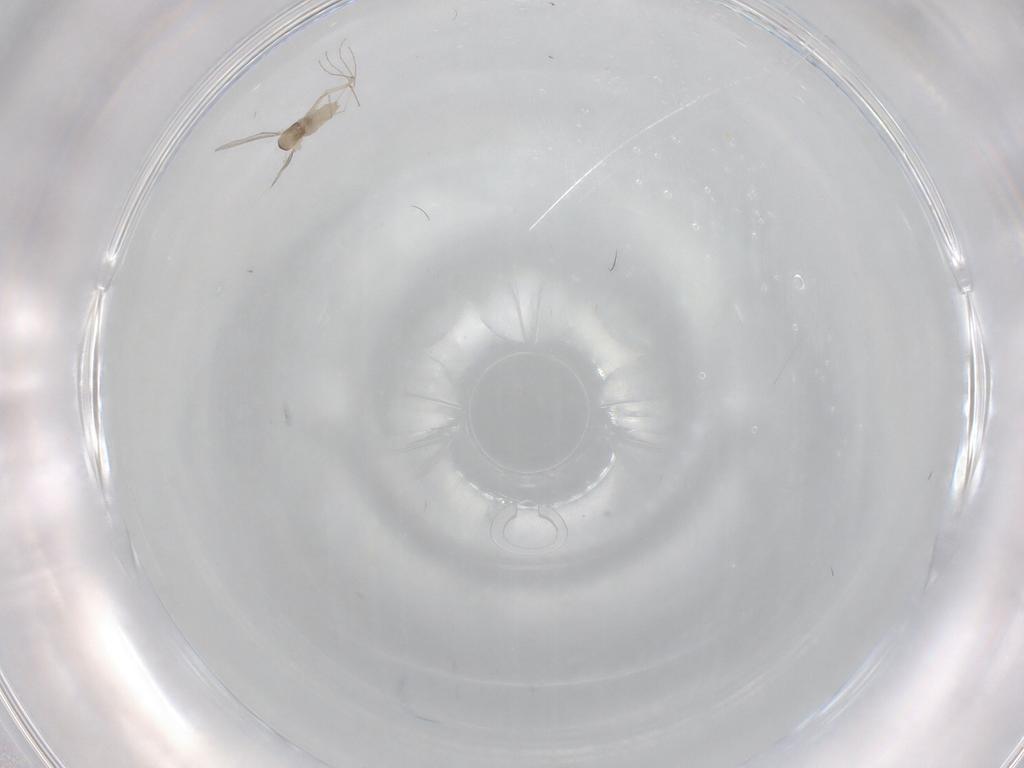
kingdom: Animalia
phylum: Arthropoda
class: Insecta
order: Diptera
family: Cecidomyiidae
